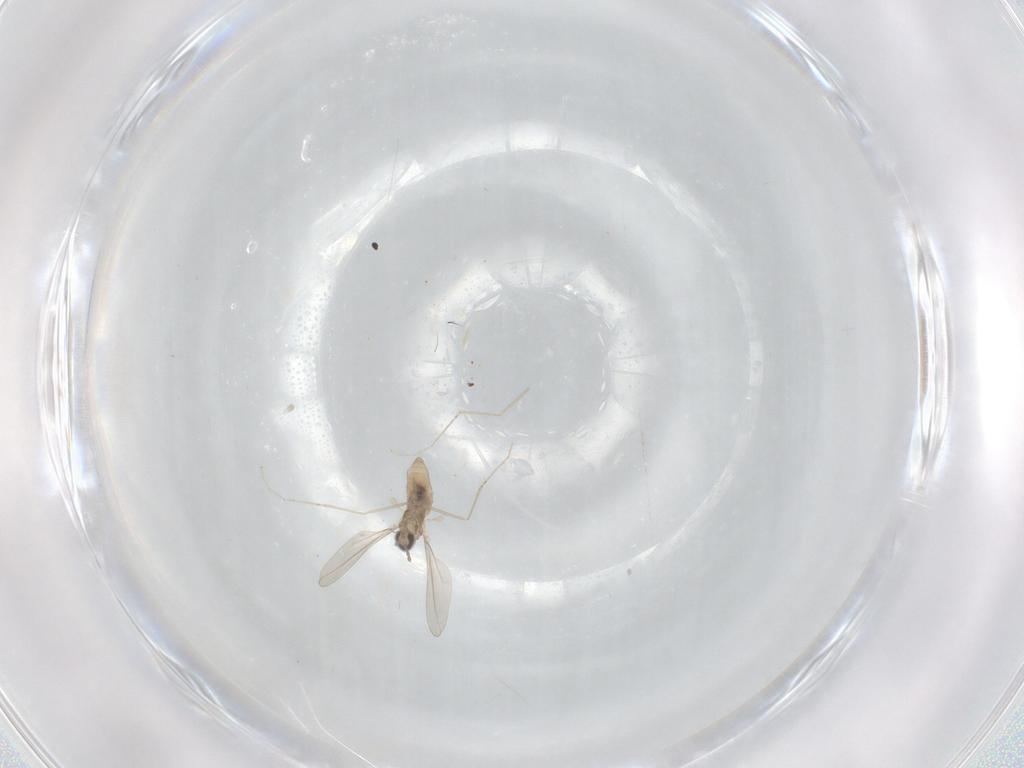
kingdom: Animalia
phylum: Arthropoda
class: Insecta
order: Diptera
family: Cecidomyiidae
